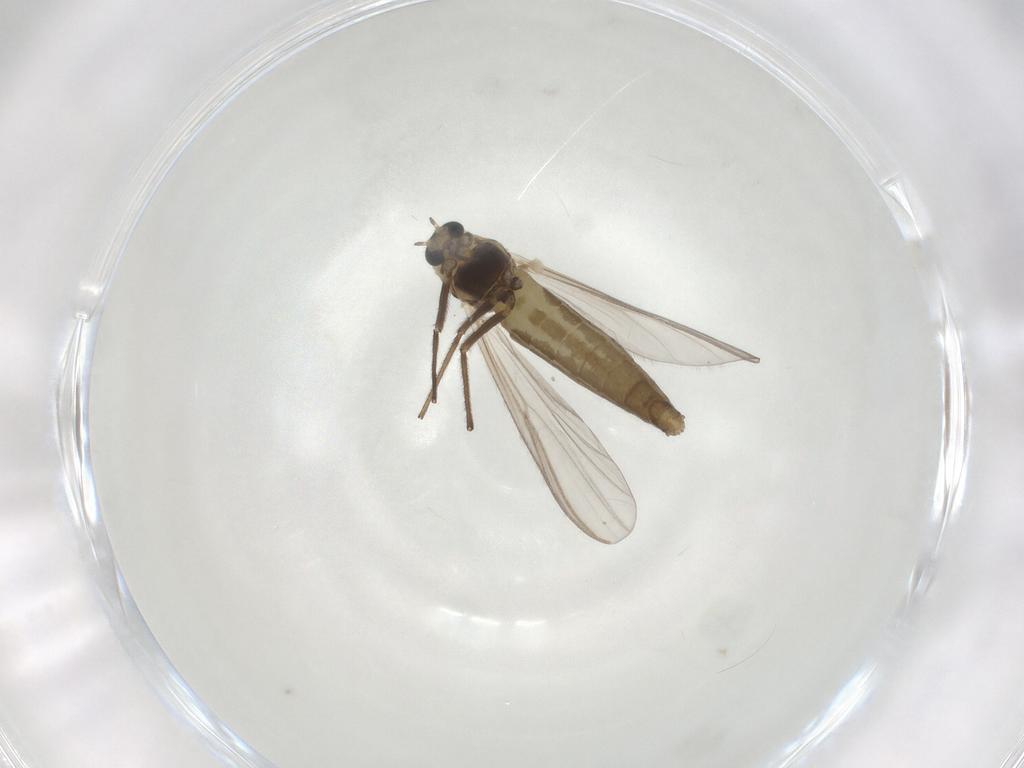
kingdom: Animalia
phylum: Arthropoda
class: Insecta
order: Diptera
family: Chironomidae
